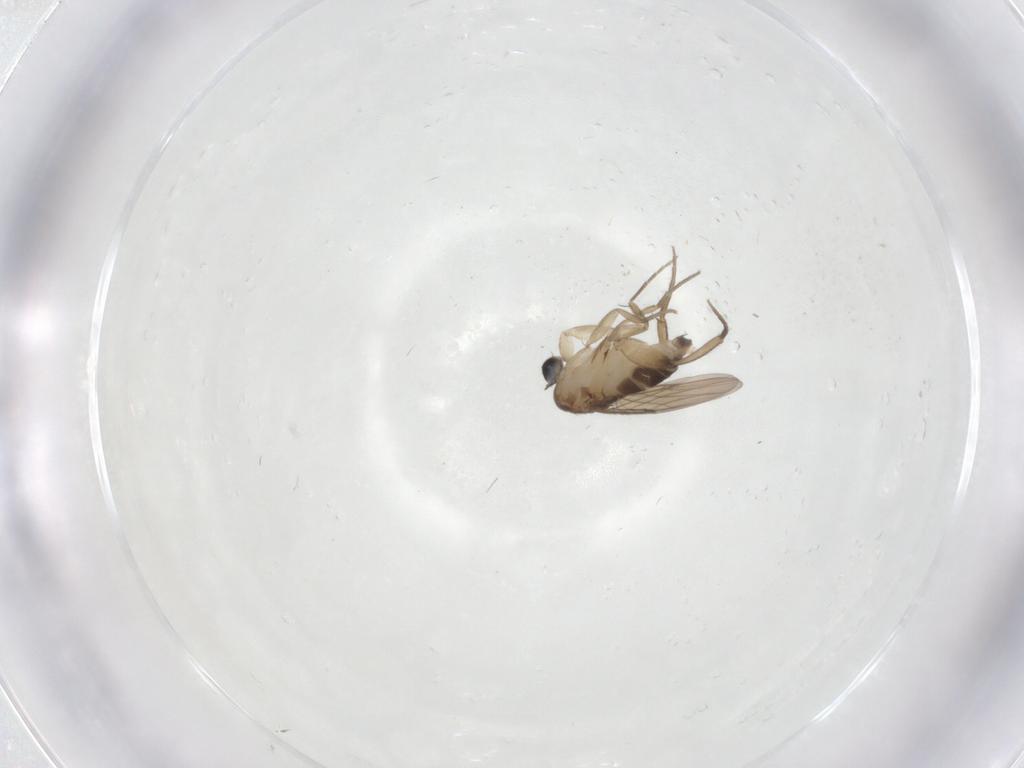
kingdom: Animalia
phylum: Arthropoda
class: Insecta
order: Diptera
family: Phoridae
